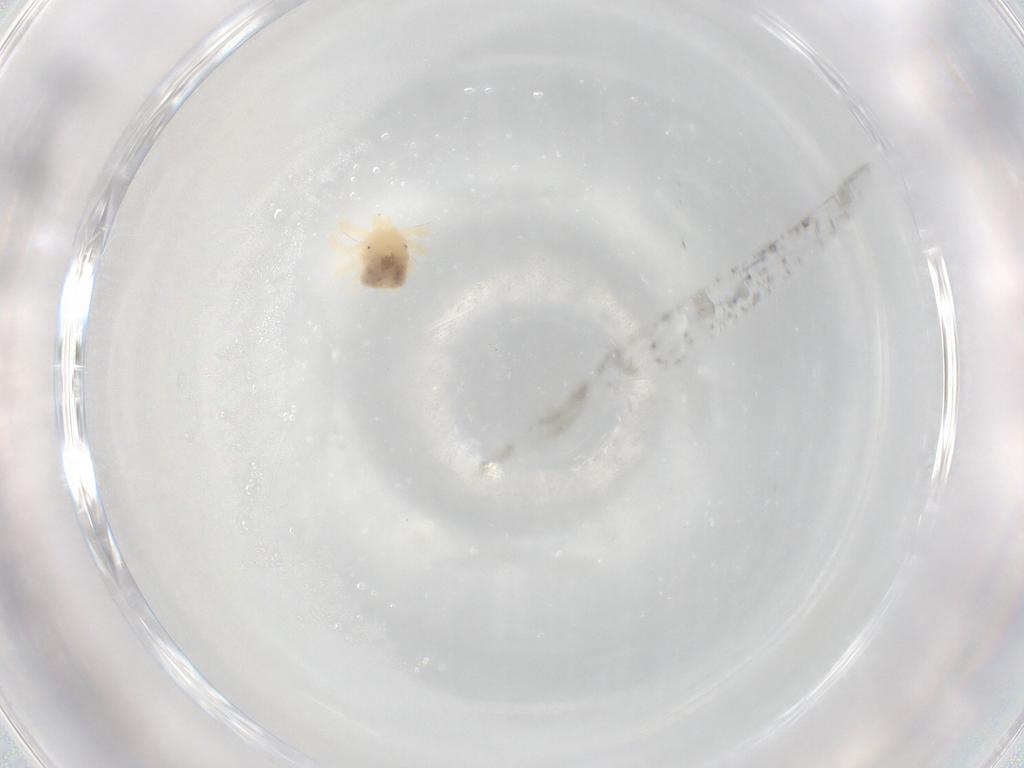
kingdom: Animalia
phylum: Arthropoda
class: Arachnida
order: Trombidiformes
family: Anystidae
